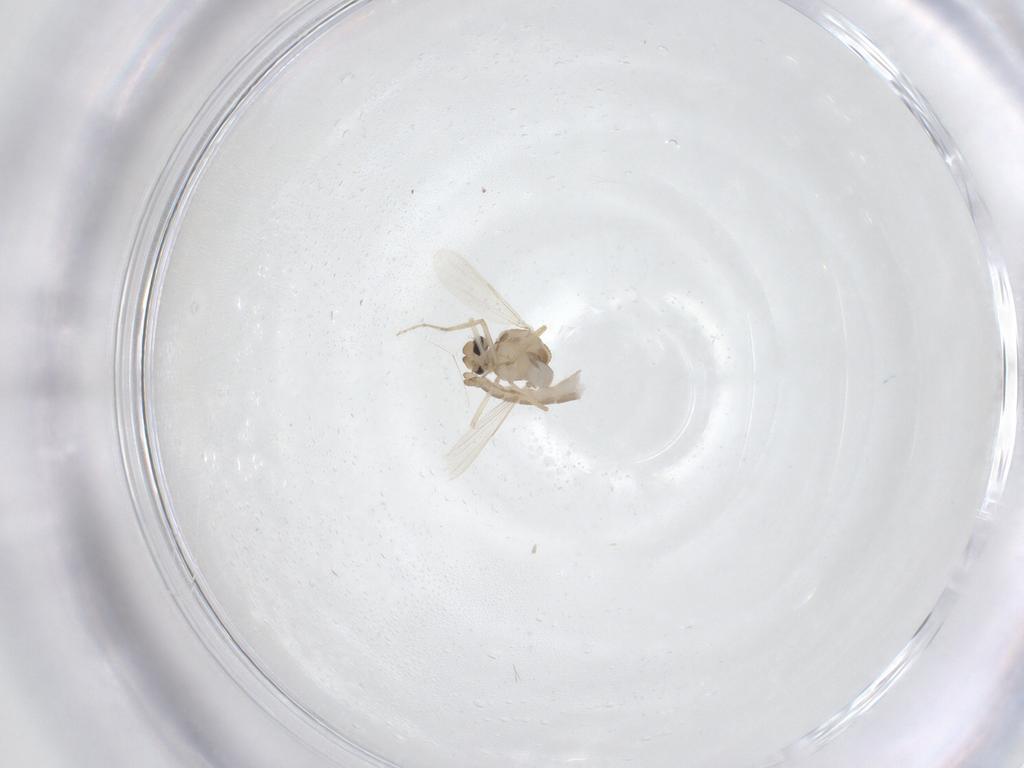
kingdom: Animalia
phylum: Arthropoda
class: Insecta
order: Diptera
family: Ceratopogonidae
